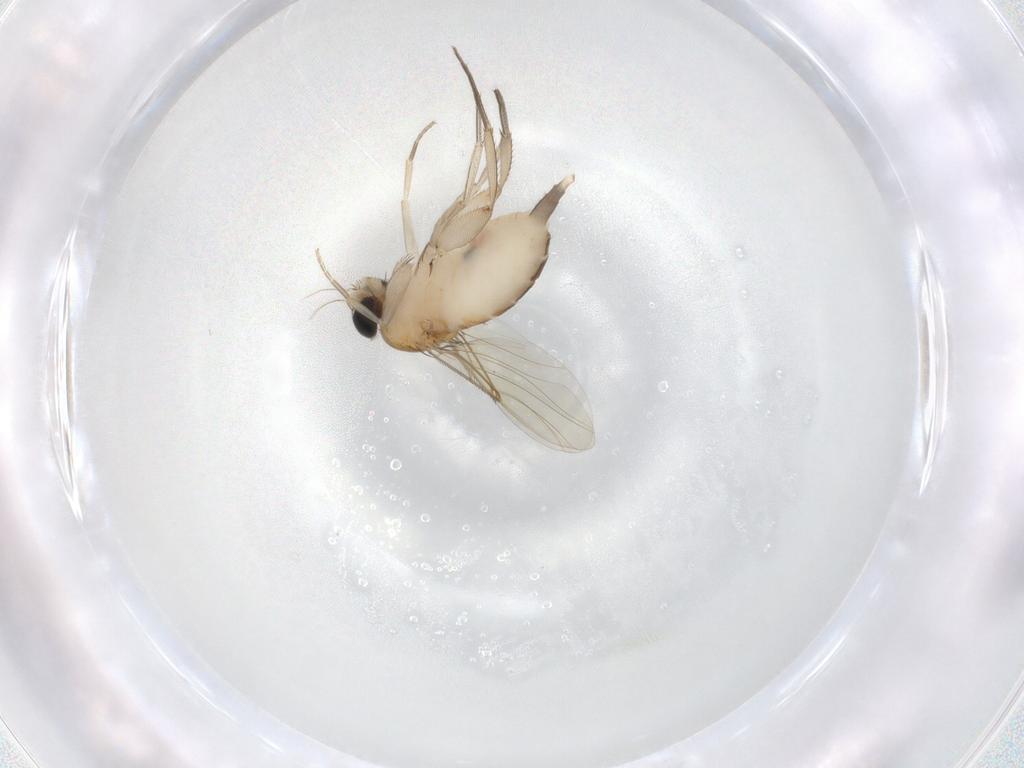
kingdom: Animalia
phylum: Arthropoda
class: Insecta
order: Diptera
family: Phoridae
